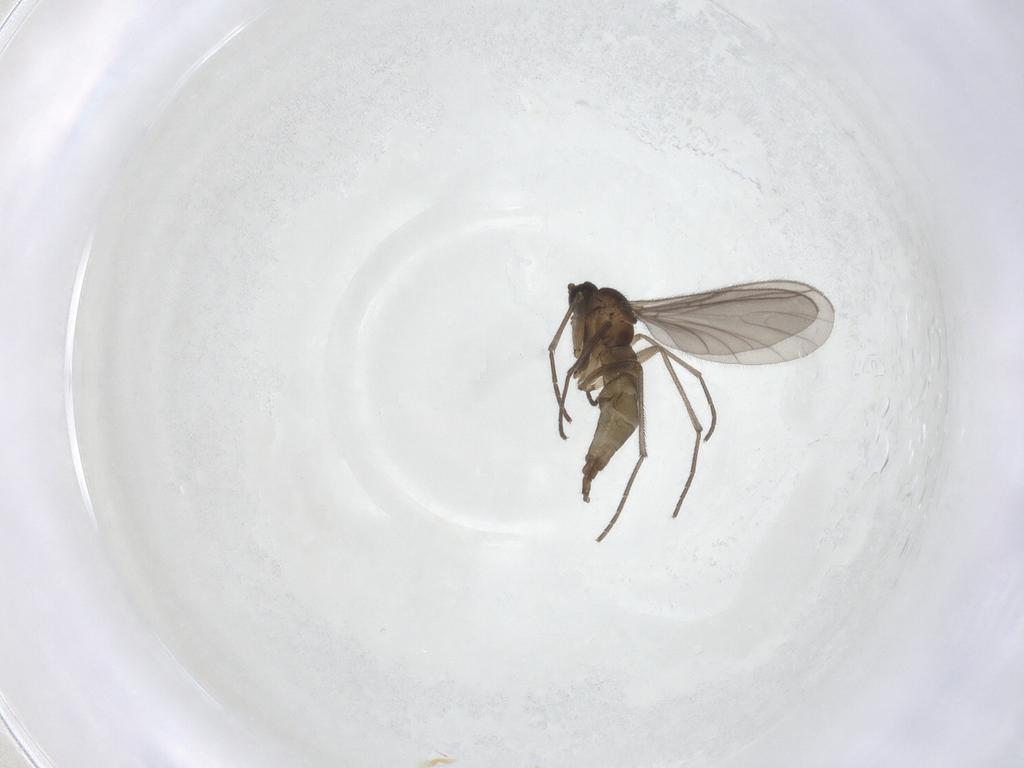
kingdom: Animalia
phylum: Arthropoda
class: Insecta
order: Diptera
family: Sciaridae
